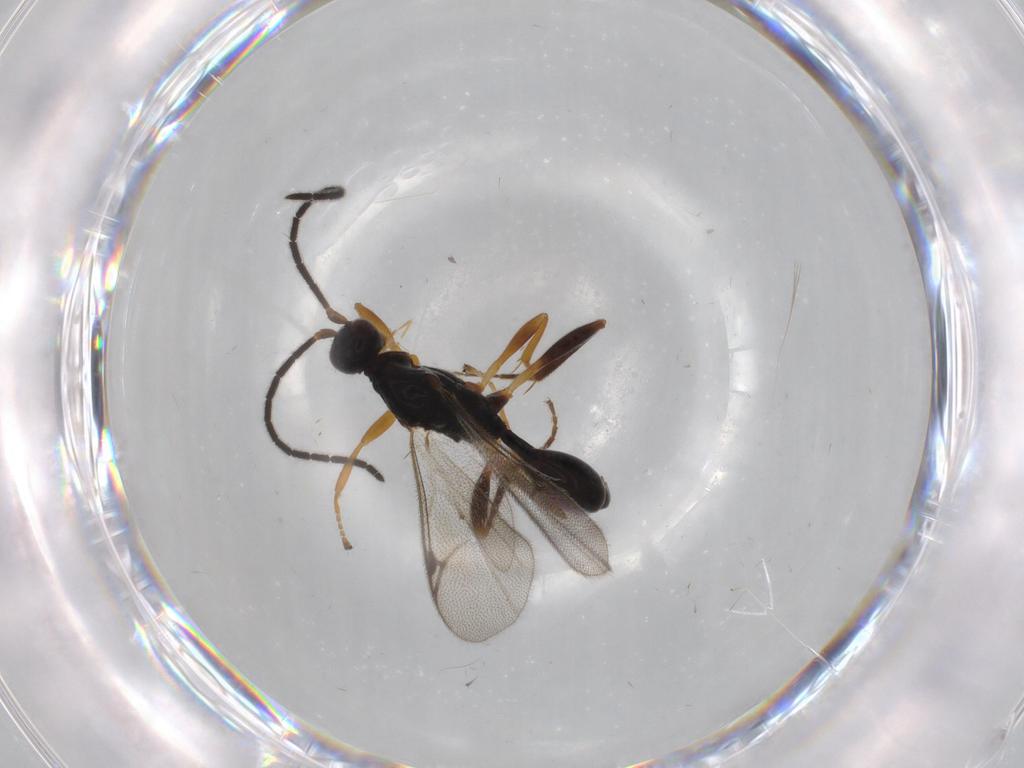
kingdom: Animalia
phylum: Arthropoda
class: Insecta
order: Hymenoptera
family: Proctotrupidae
